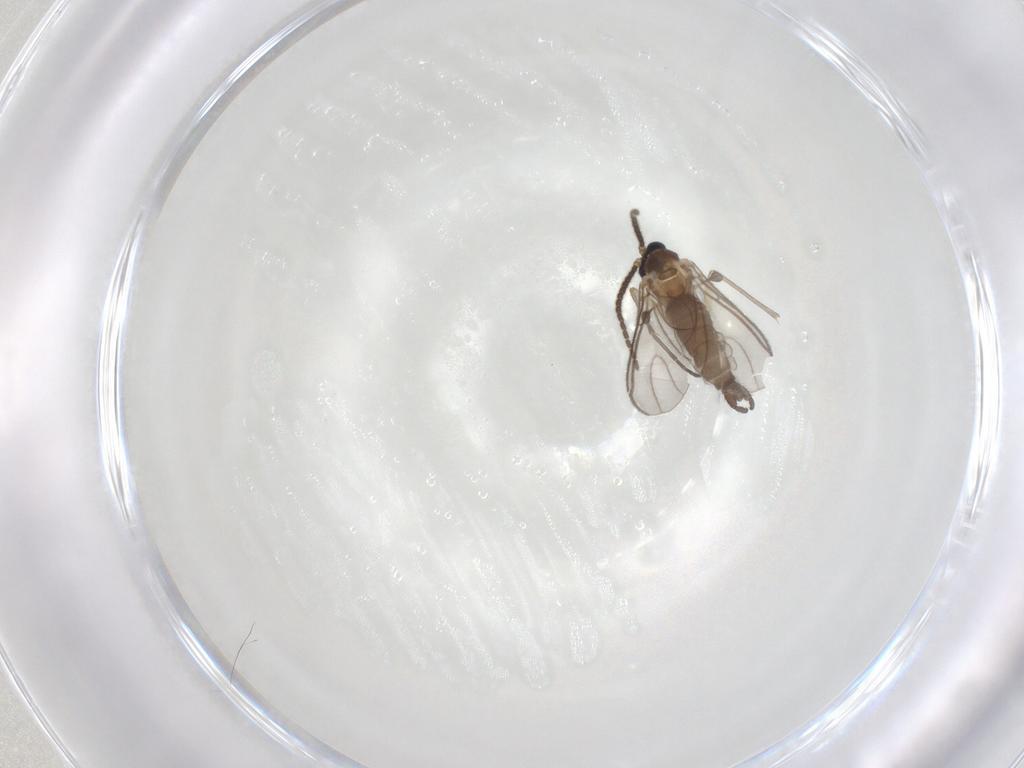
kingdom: Animalia
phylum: Arthropoda
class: Insecta
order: Diptera
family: Sciaridae
